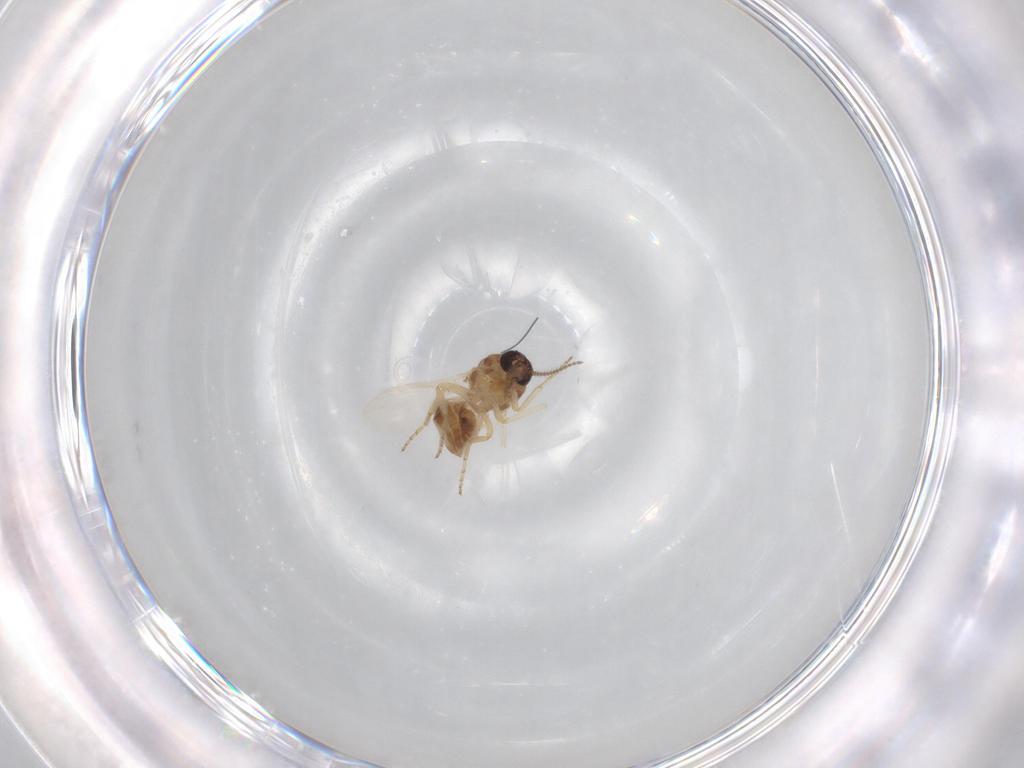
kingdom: Animalia
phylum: Arthropoda
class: Insecta
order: Diptera
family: Ceratopogonidae
